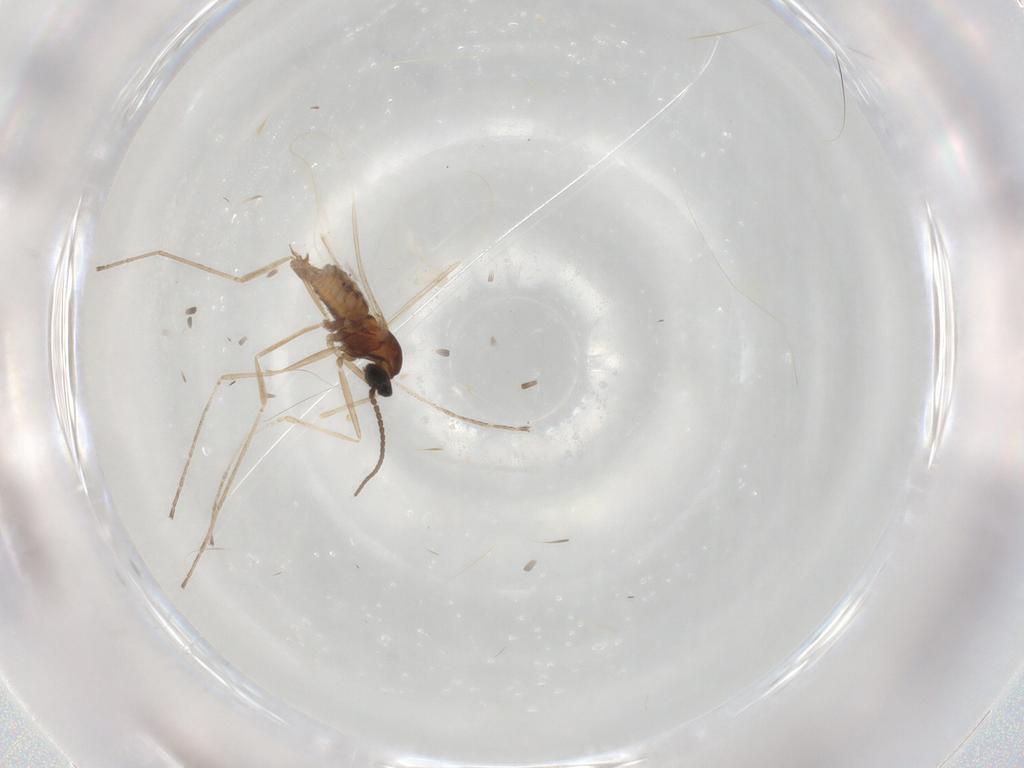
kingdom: Animalia
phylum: Arthropoda
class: Insecta
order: Diptera
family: Cecidomyiidae
